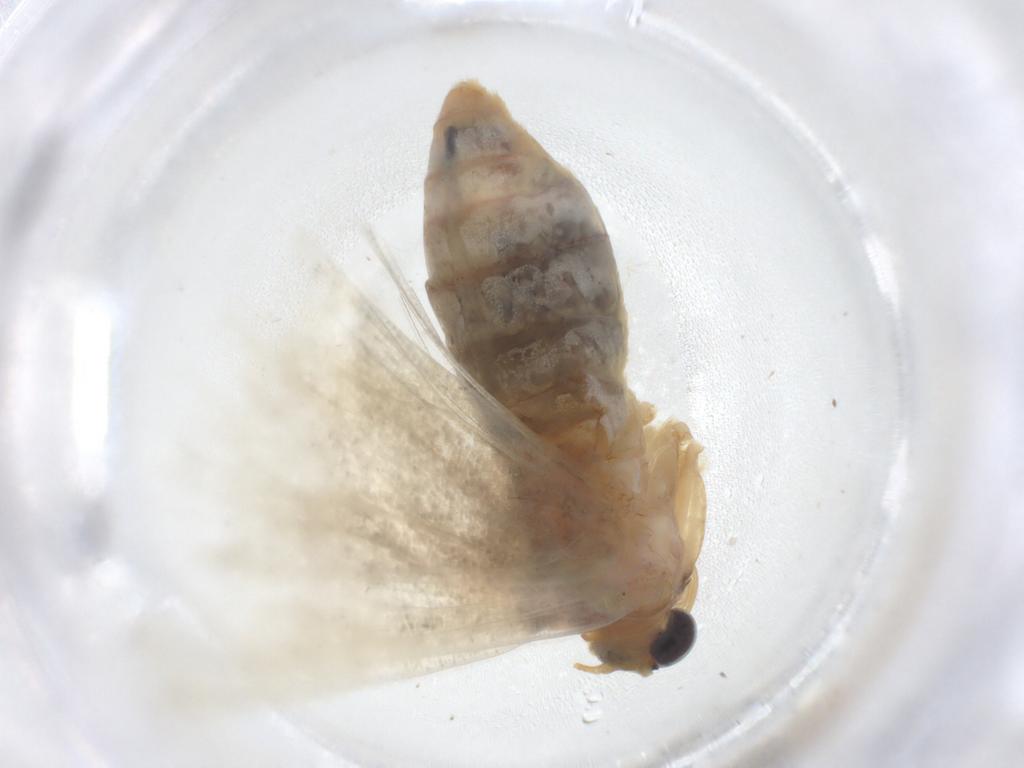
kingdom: Animalia
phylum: Arthropoda
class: Insecta
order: Lepidoptera
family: Geometridae
